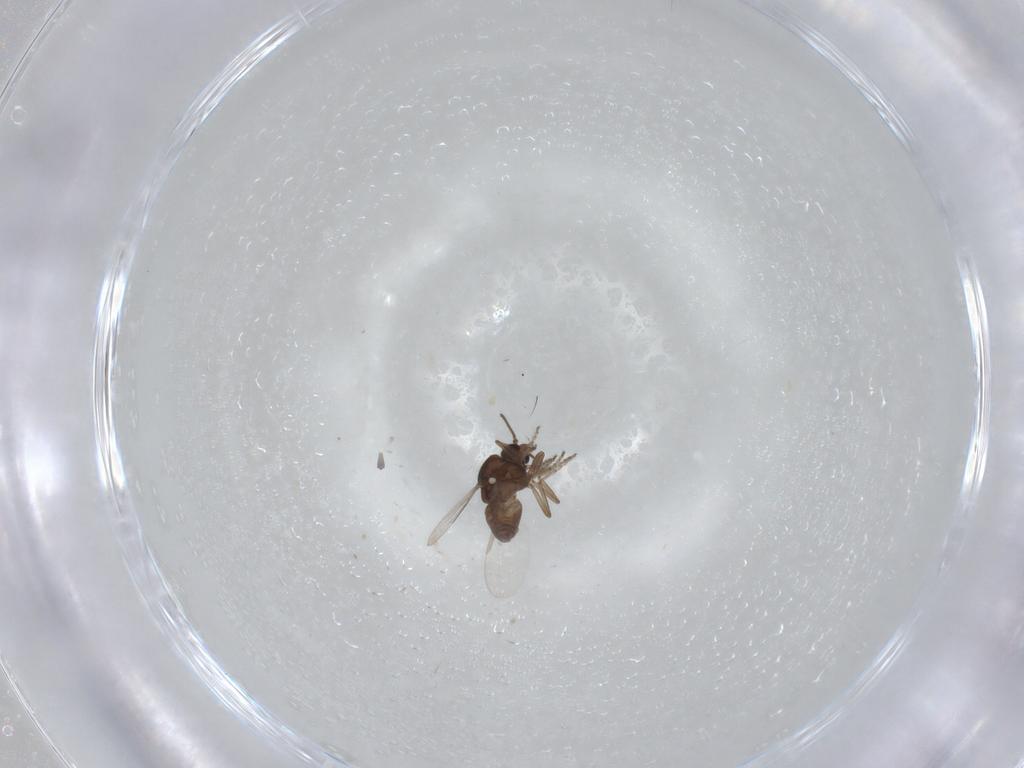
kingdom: Animalia
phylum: Arthropoda
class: Insecta
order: Diptera
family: Ceratopogonidae
